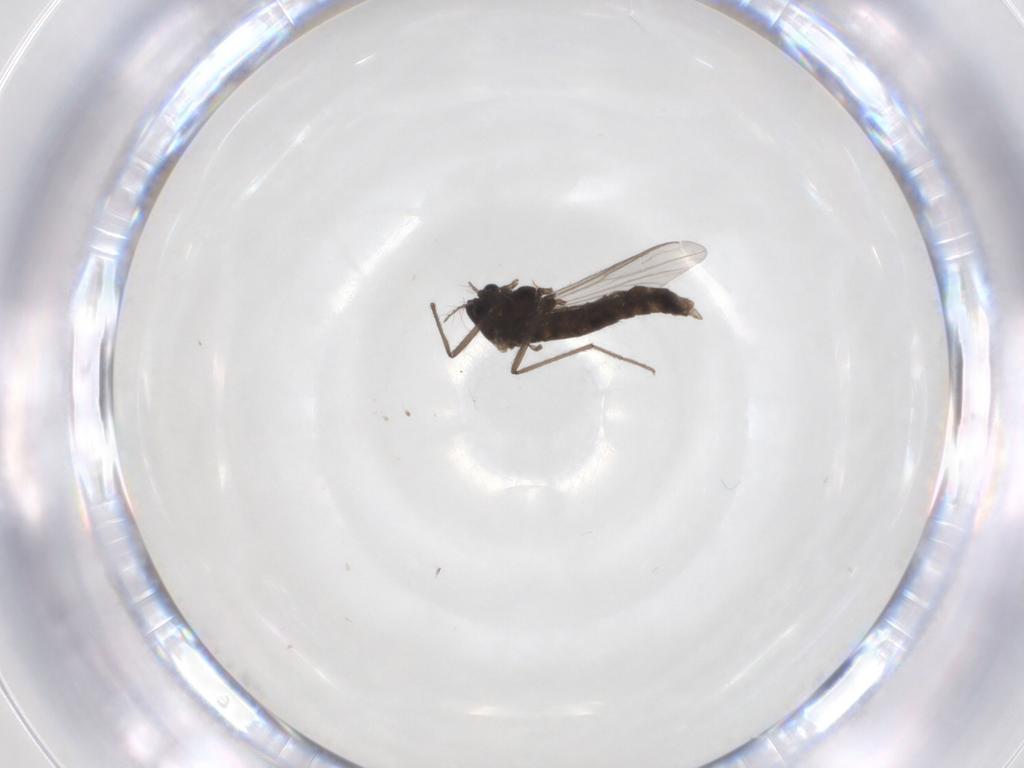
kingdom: Animalia
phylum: Arthropoda
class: Insecta
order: Diptera
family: Chironomidae
